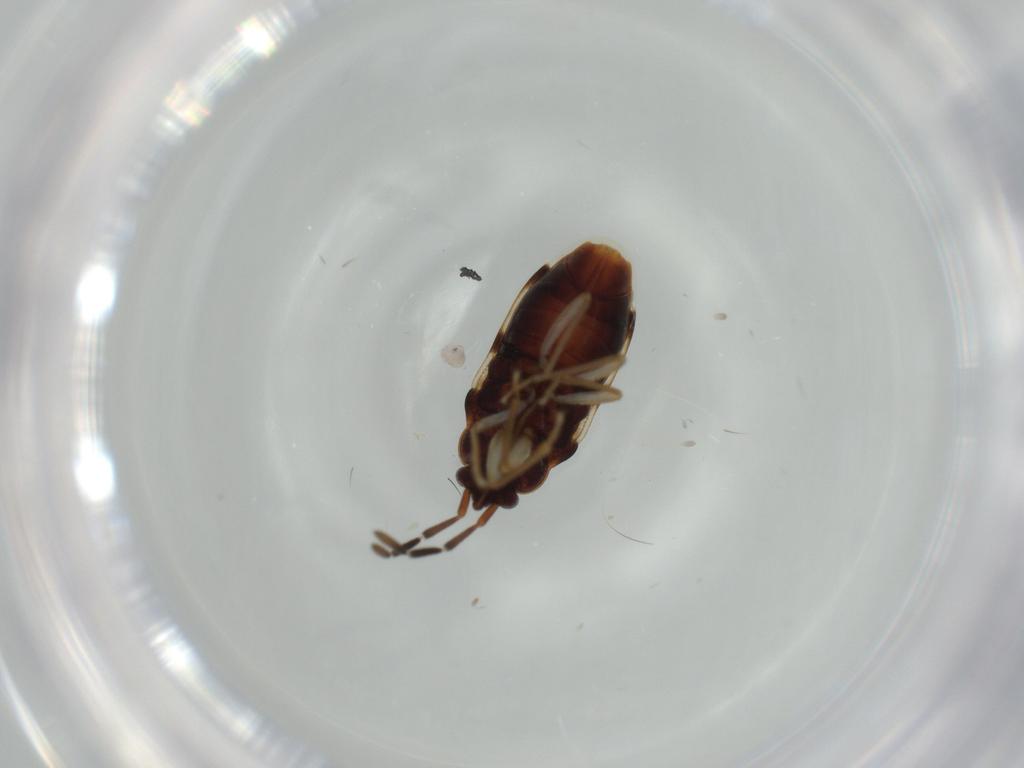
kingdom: Animalia
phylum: Arthropoda
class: Insecta
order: Hemiptera
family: Rhyparochromidae
